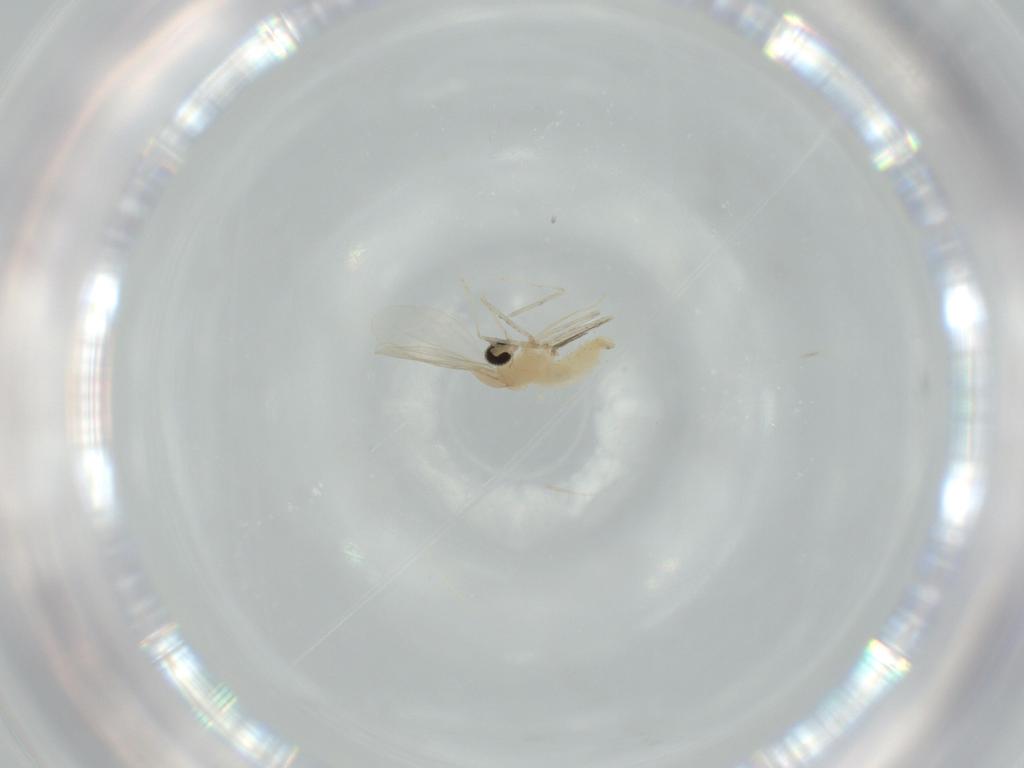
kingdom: Animalia
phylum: Arthropoda
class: Insecta
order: Diptera
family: Cecidomyiidae
